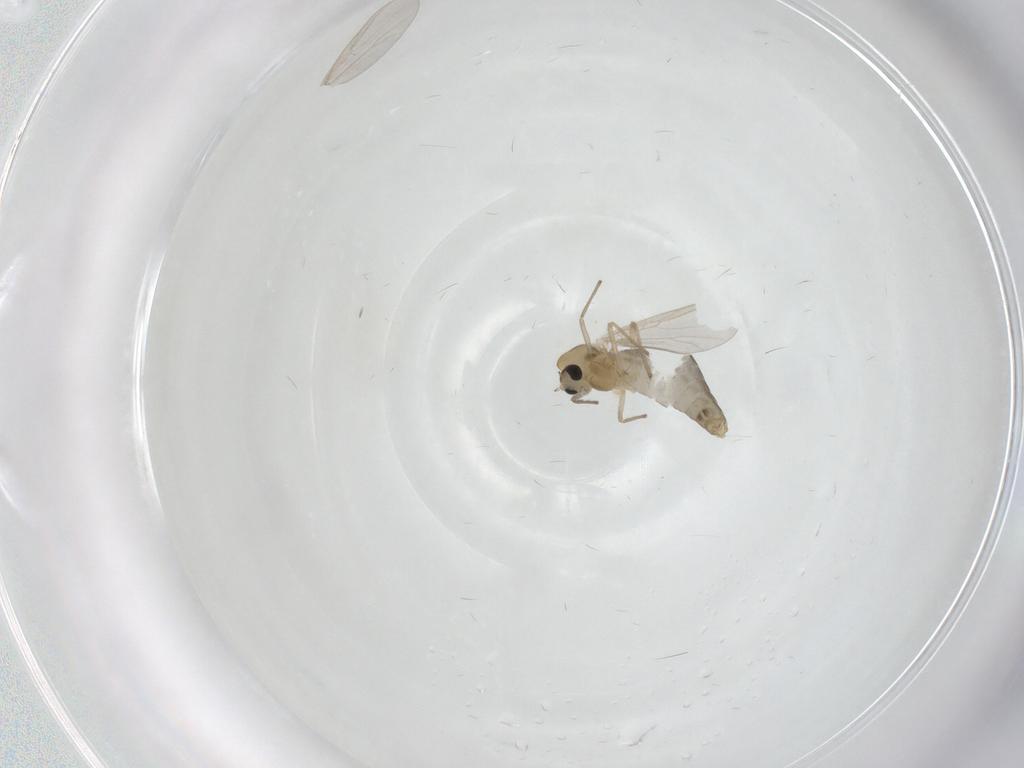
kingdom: Animalia
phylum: Arthropoda
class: Insecta
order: Diptera
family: Chironomidae
